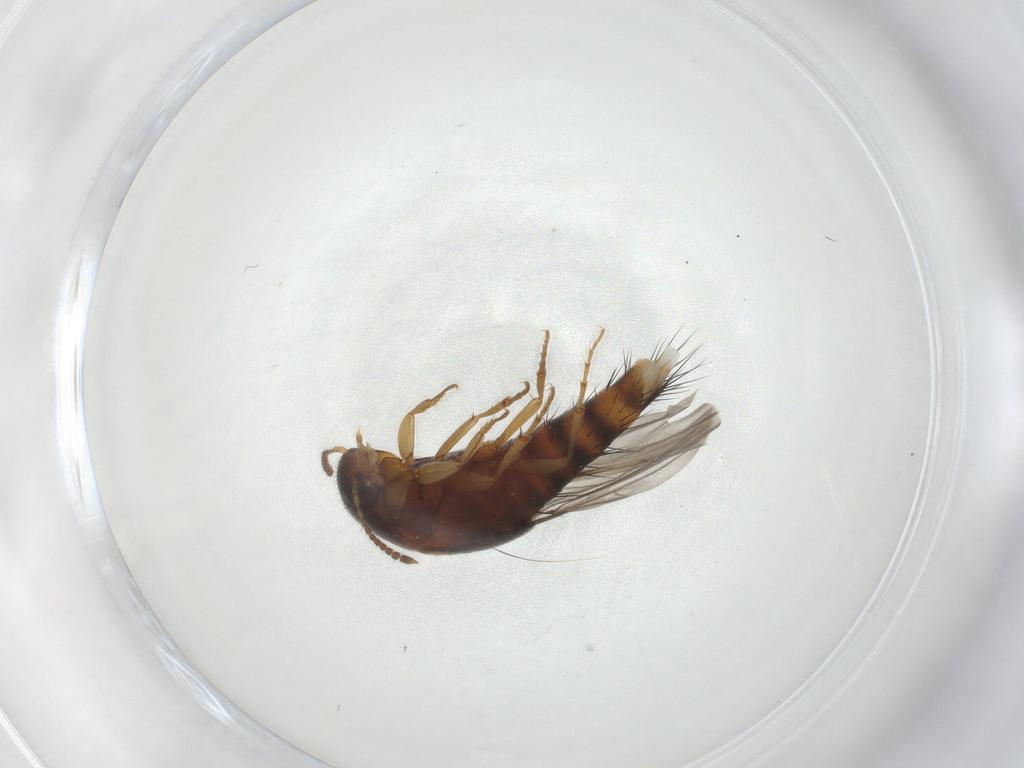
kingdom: Animalia
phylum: Arthropoda
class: Insecta
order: Coleoptera
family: Staphylinidae
